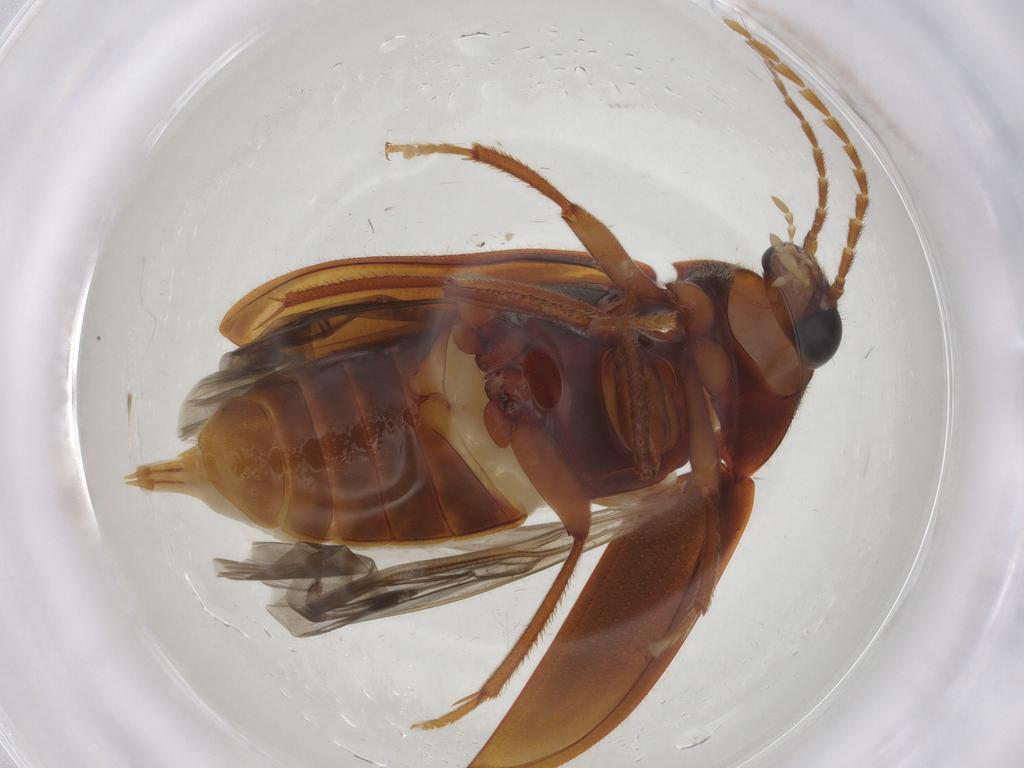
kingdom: Animalia
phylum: Arthropoda
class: Insecta
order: Coleoptera
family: Ptilodactylidae
